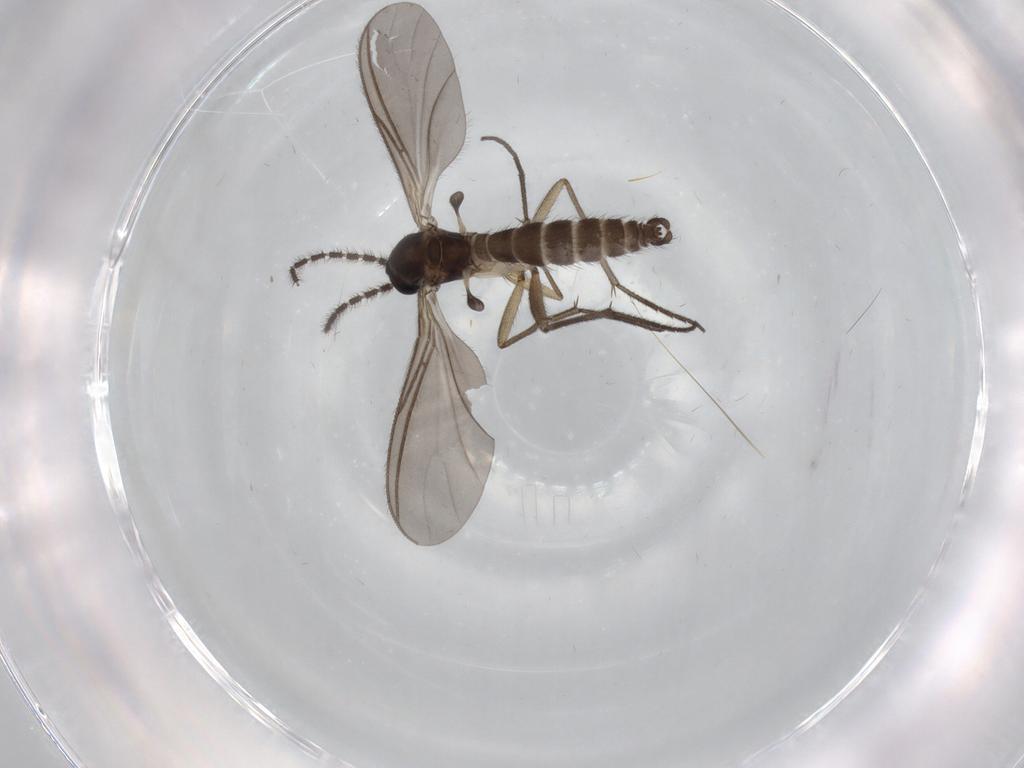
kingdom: Animalia
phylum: Arthropoda
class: Insecta
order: Diptera
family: Sciaridae
